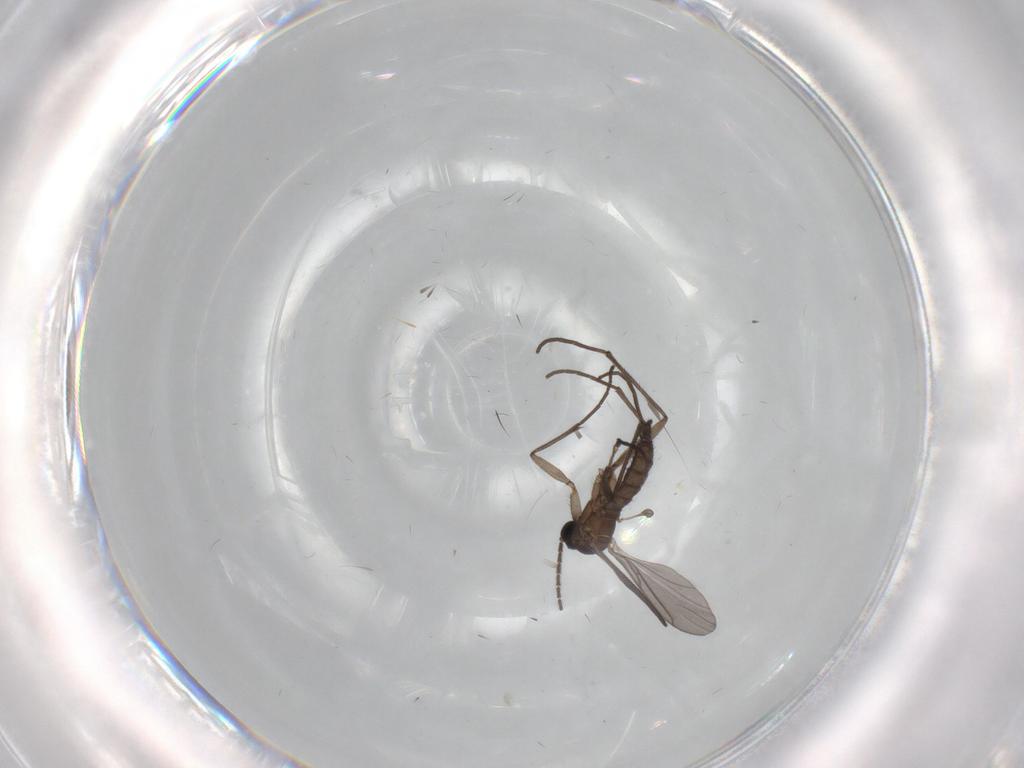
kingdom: Animalia
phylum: Arthropoda
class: Insecta
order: Diptera
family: Sciaridae
